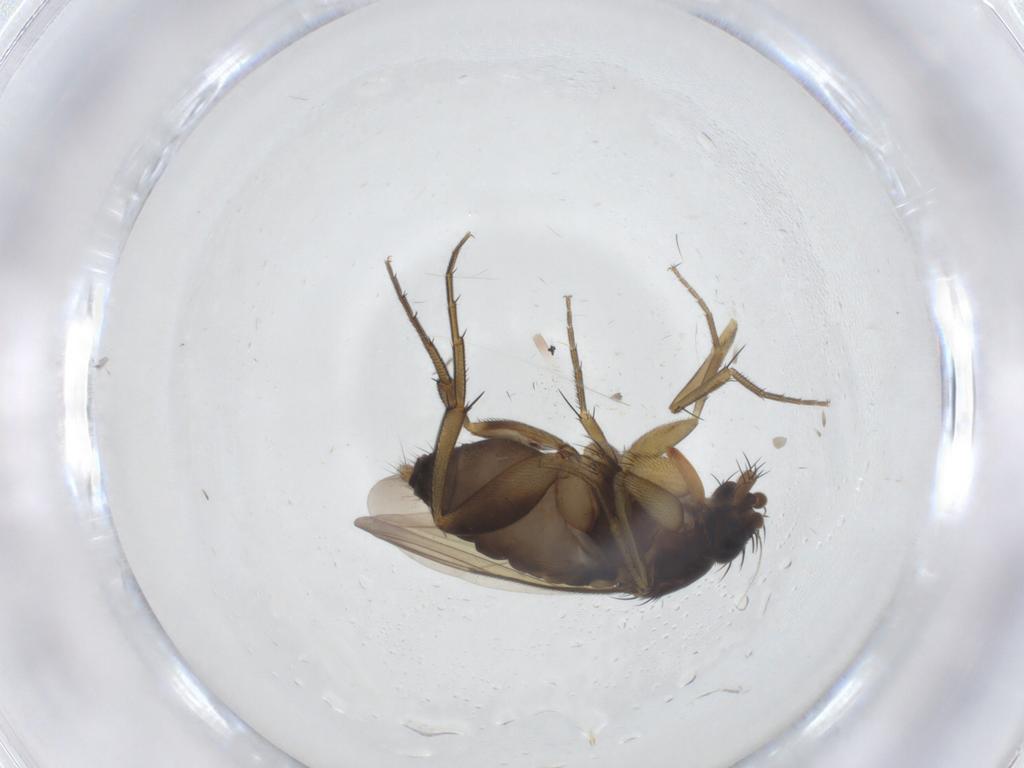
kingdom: Animalia
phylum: Arthropoda
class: Insecta
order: Diptera
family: Phoridae
